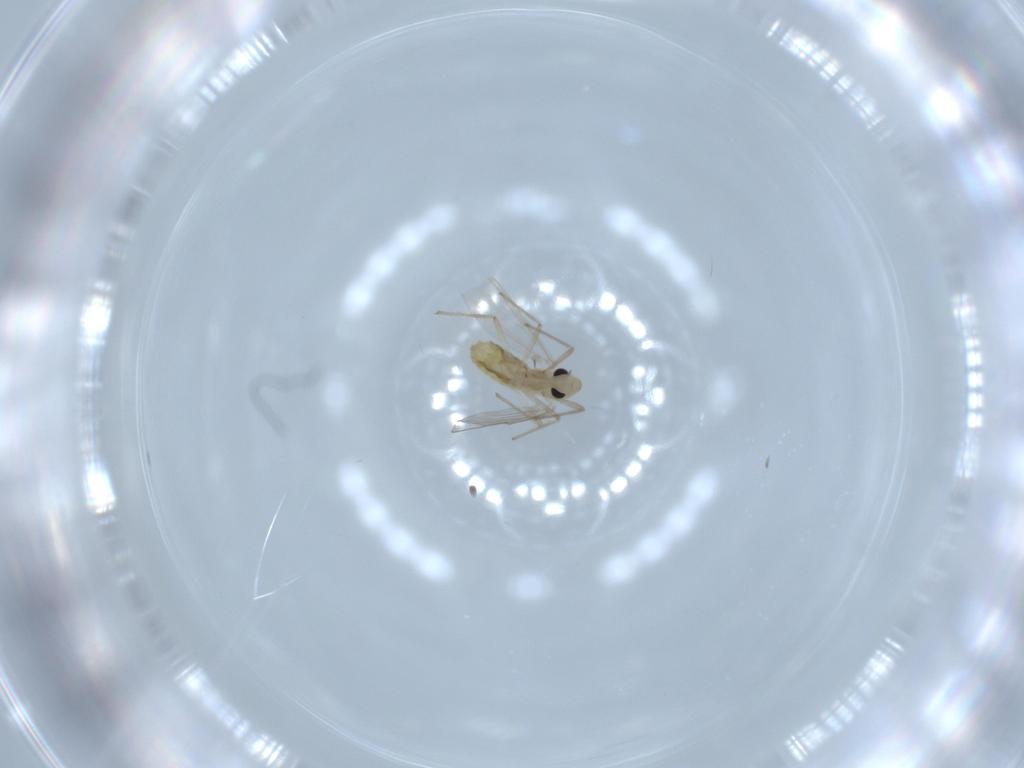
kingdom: Animalia
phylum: Arthropoda
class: Insecta
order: Diptera
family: Chironomidae
